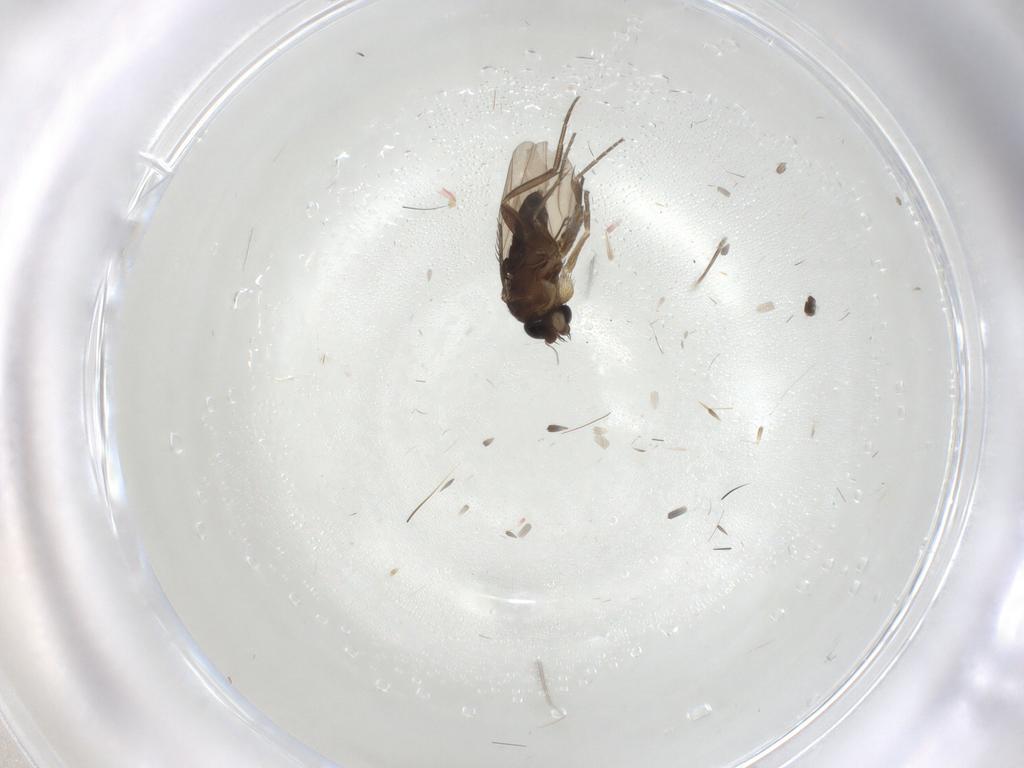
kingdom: Animalia
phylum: Arthropoda
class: Insecta
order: Diptera
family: Phoridae
